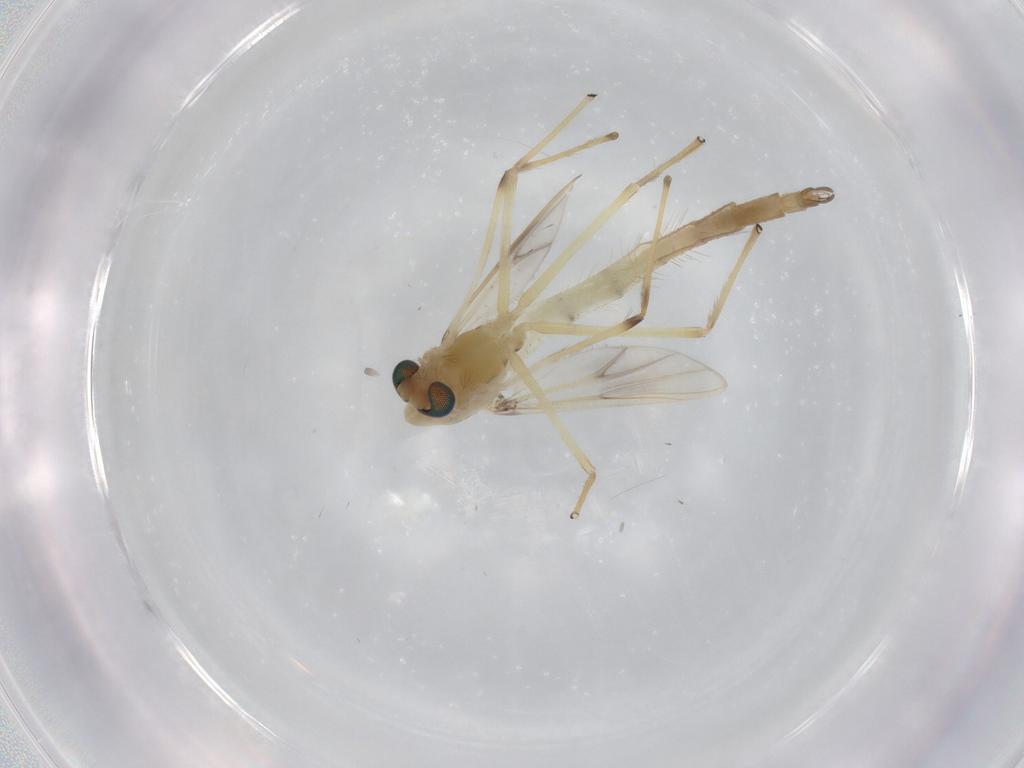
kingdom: Animalia
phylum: Arthropoda
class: Insecta
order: Diptera
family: Chironomidae
